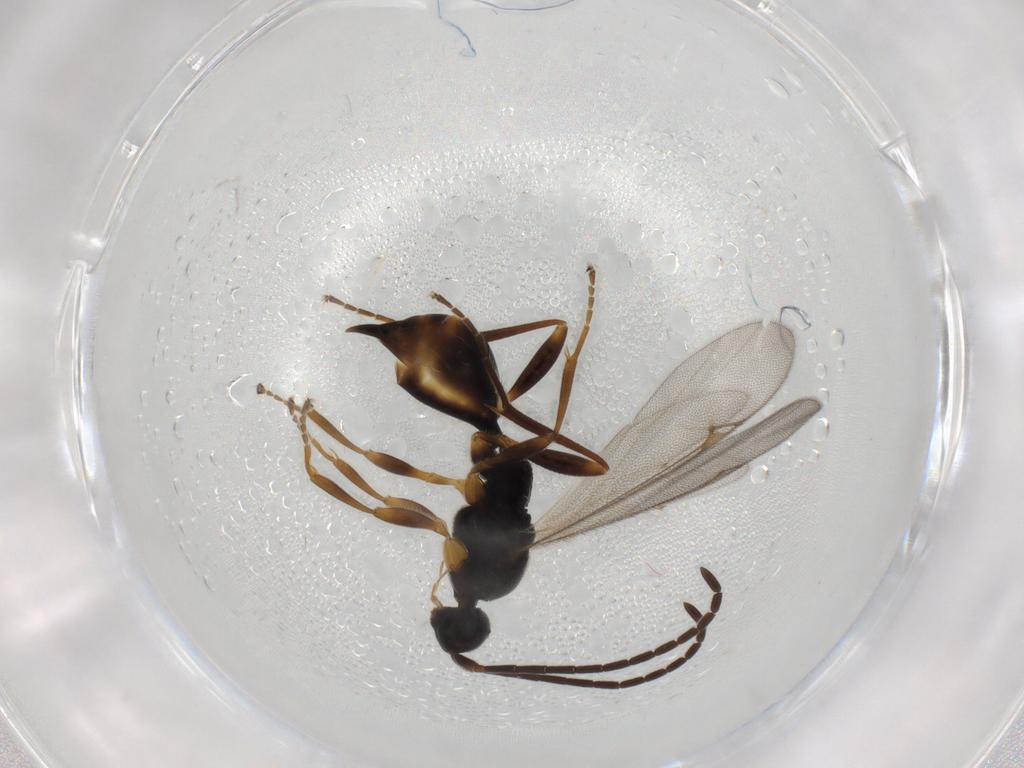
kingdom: Animalia
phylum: Arthropoda
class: Insecta
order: Hymenoptera
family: Proctotrupidae
